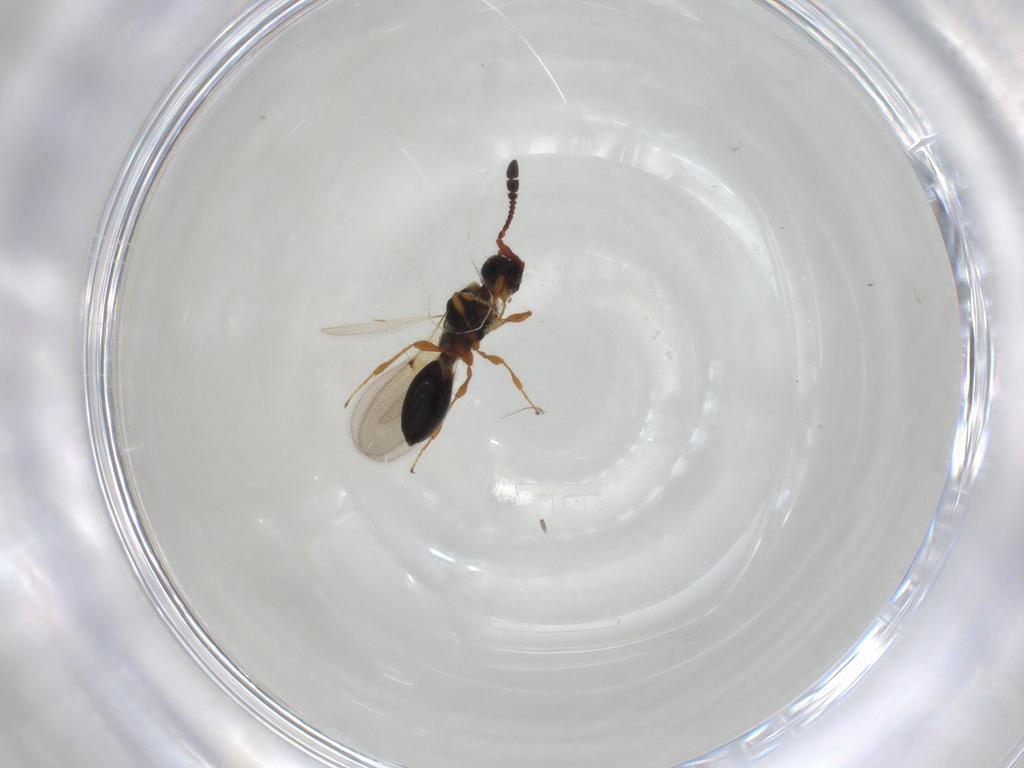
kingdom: Animalia
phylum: Arthropoda
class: Insecta
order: Hymenoptera
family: Diapriidae
